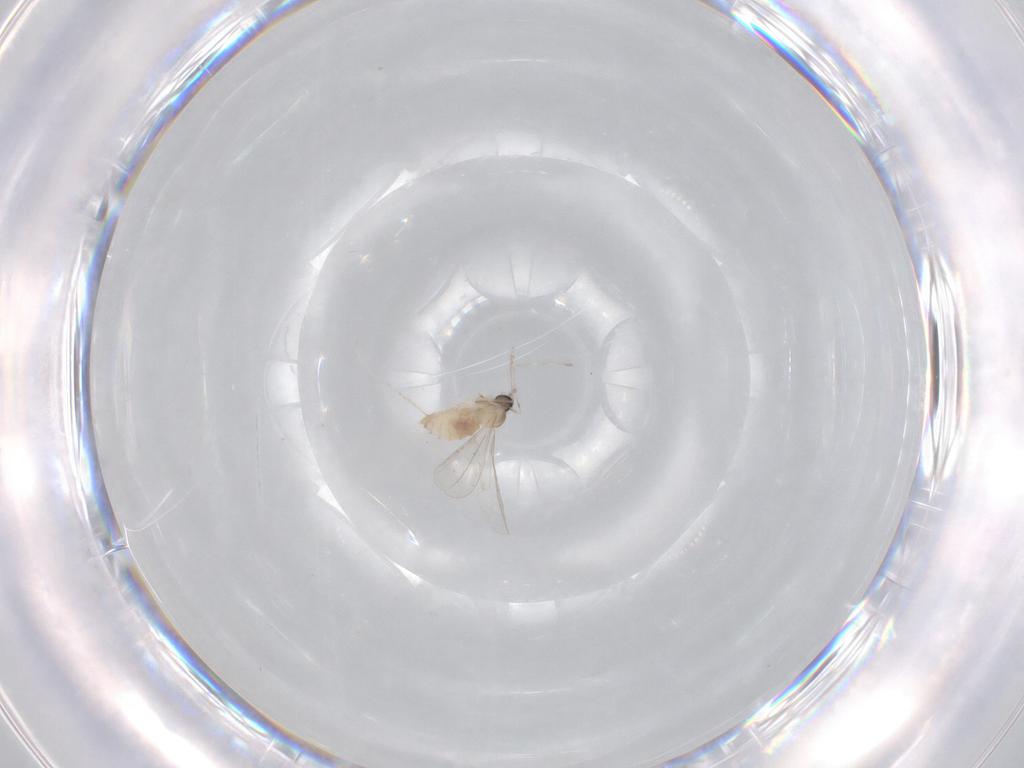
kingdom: Animalia
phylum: Arthropoda
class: Insecta
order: Diptera
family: Cecidomyiidae
